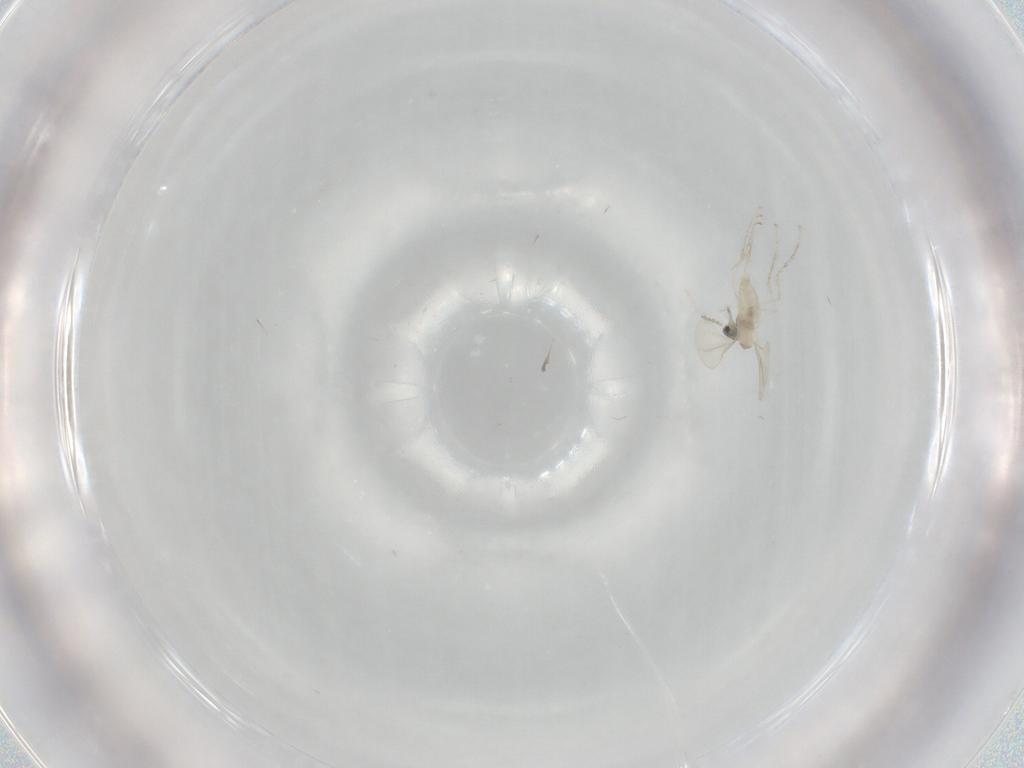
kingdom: Animalia
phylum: Arthropoda
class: Insecta
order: Diptera
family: Cecidomyiidae
